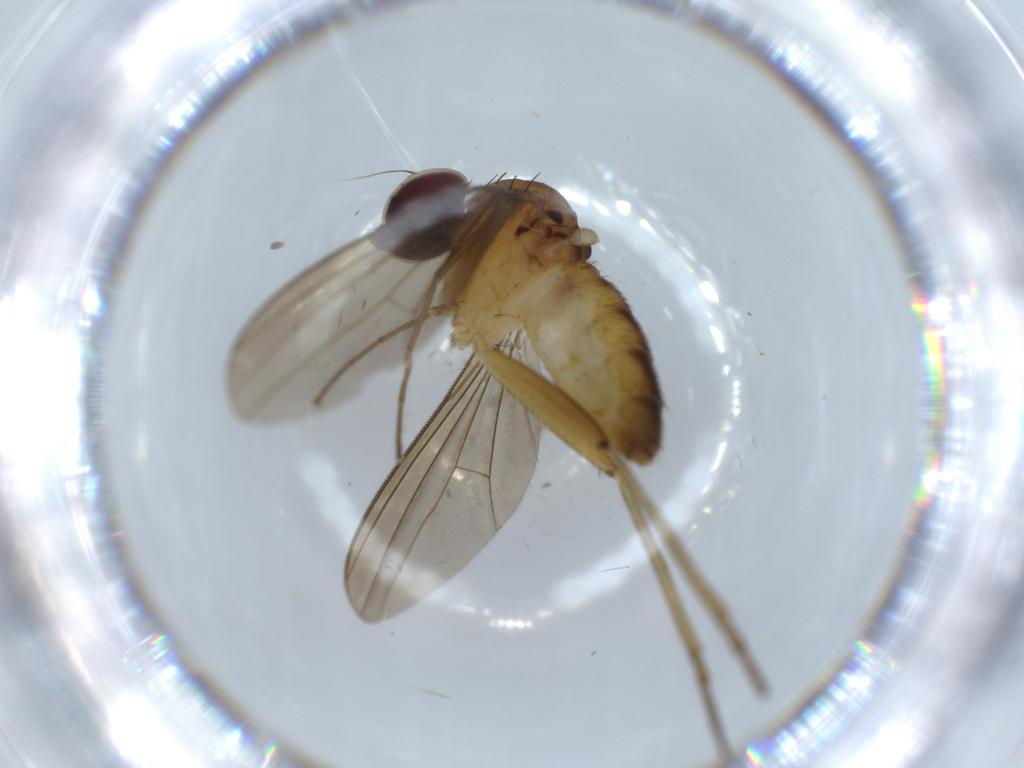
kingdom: Animalia
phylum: Arthropoda
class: Insecta
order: Diptera
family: Dolichopodidae
